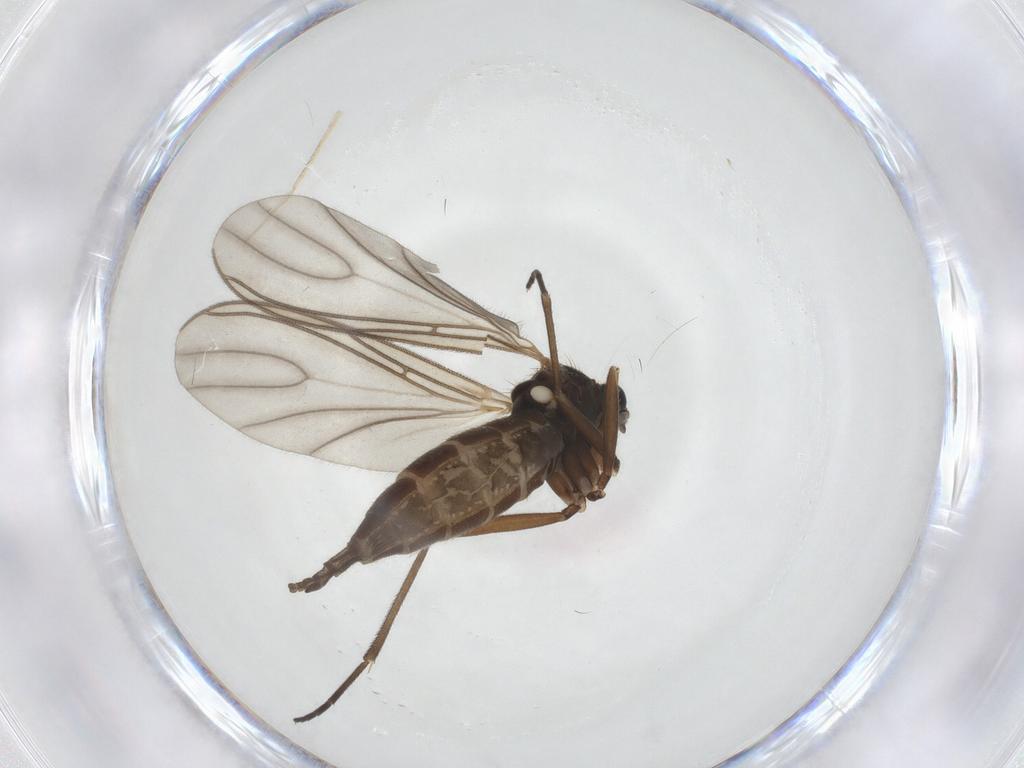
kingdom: Animalia
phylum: Arthropoda
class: Insecta
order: Diptera
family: Sciaridae
